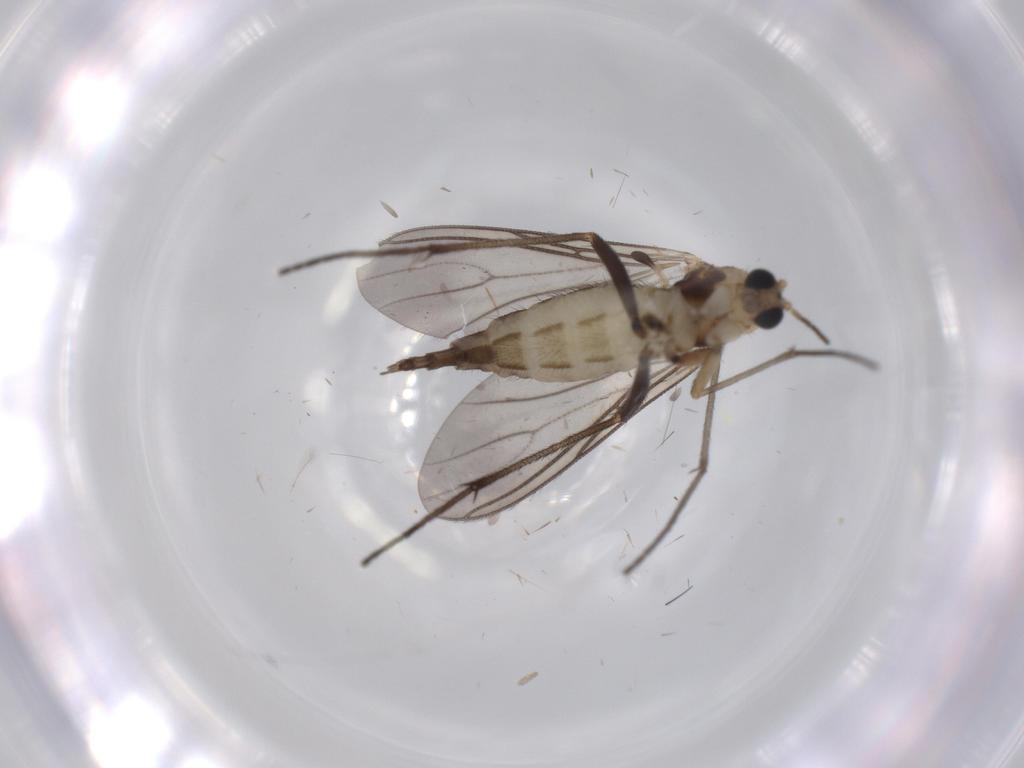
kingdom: Animalia
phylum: Arthropoda
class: Insecta
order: Diptera
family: Sciaridae
